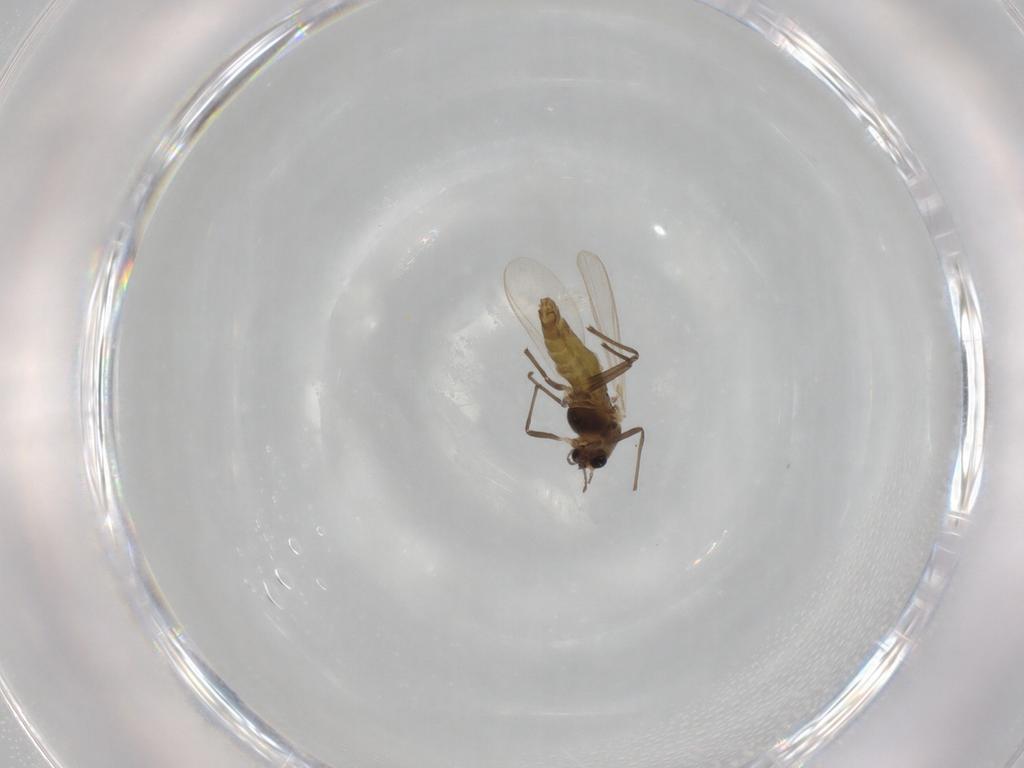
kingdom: Animalia
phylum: Arthropoda
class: Insecta
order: Diptera
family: Chironomidae
